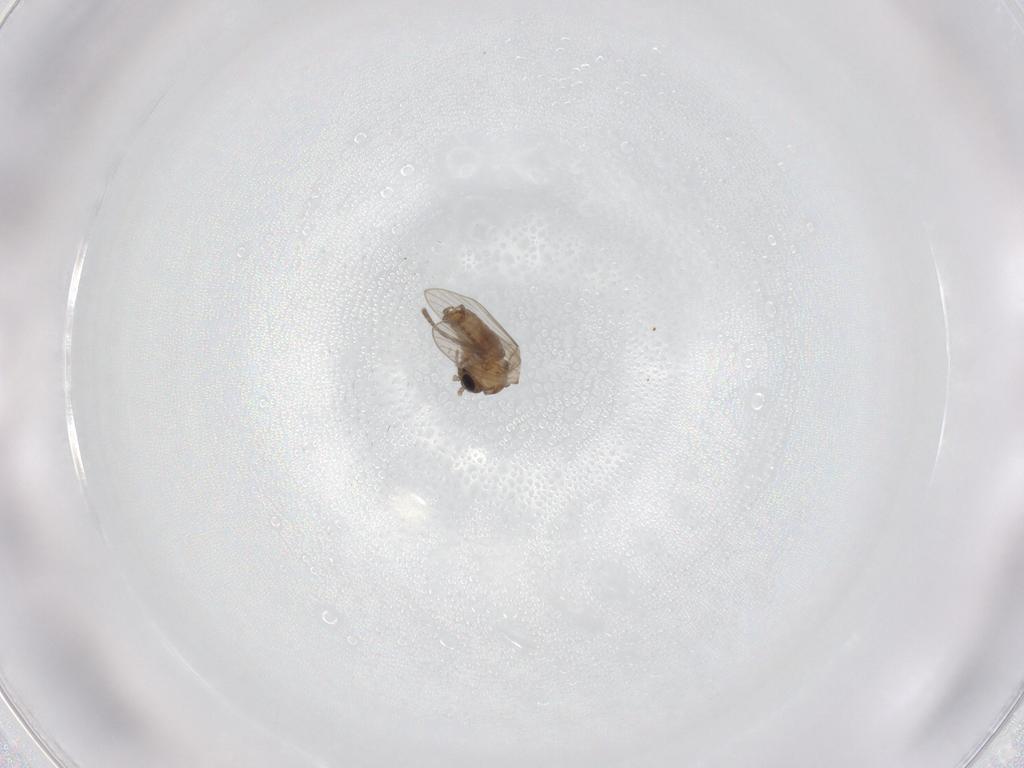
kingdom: Animalia
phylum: Arthropoda
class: Insecta
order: Diptera
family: Psychodidae
